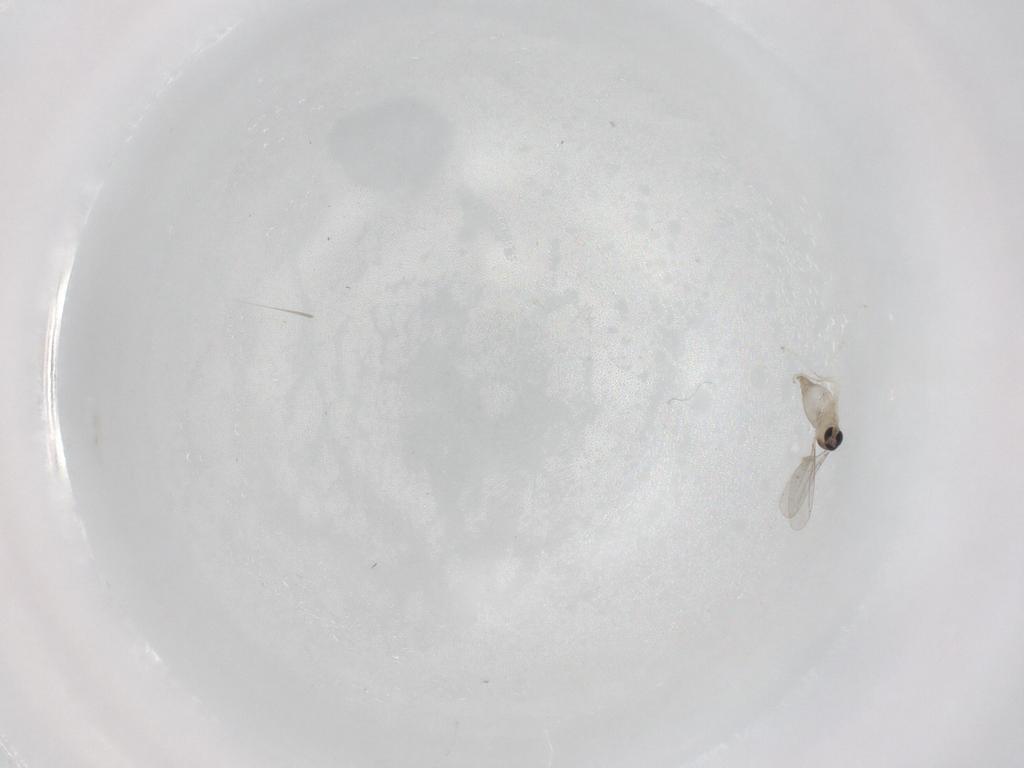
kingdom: Animalia
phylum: Arthropoda
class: Insecta
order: Diptera
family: Cecidomyiidae
